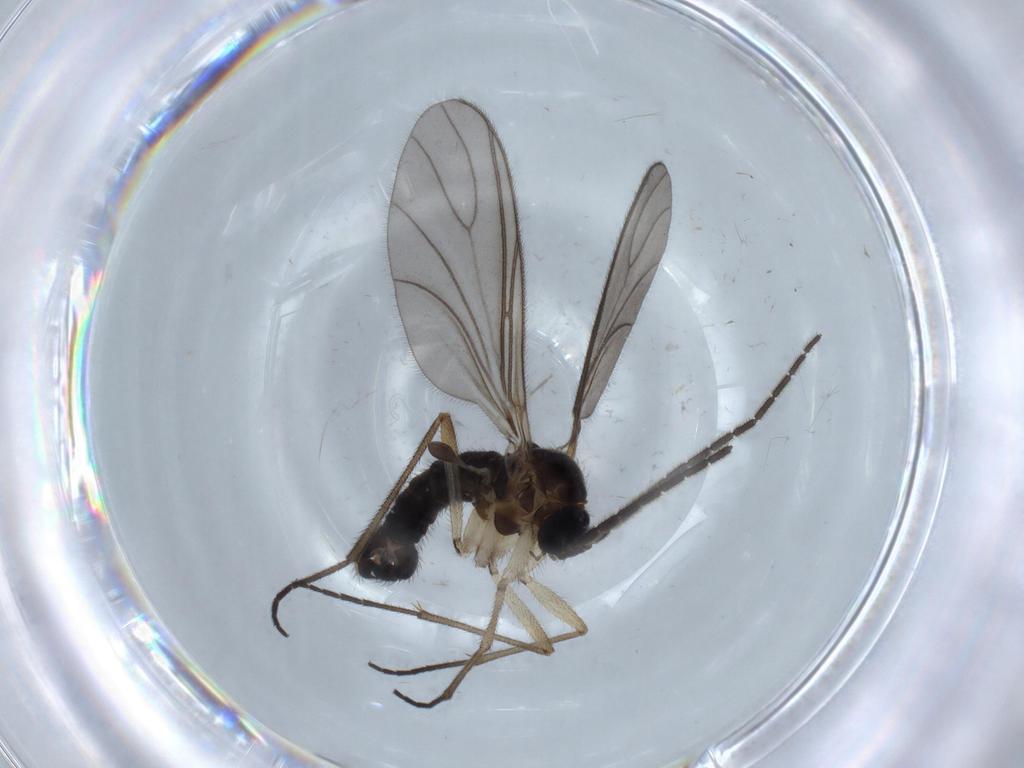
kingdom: Animalia
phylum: Arthropoda
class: Insecta
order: Diptera
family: Sciaridae
